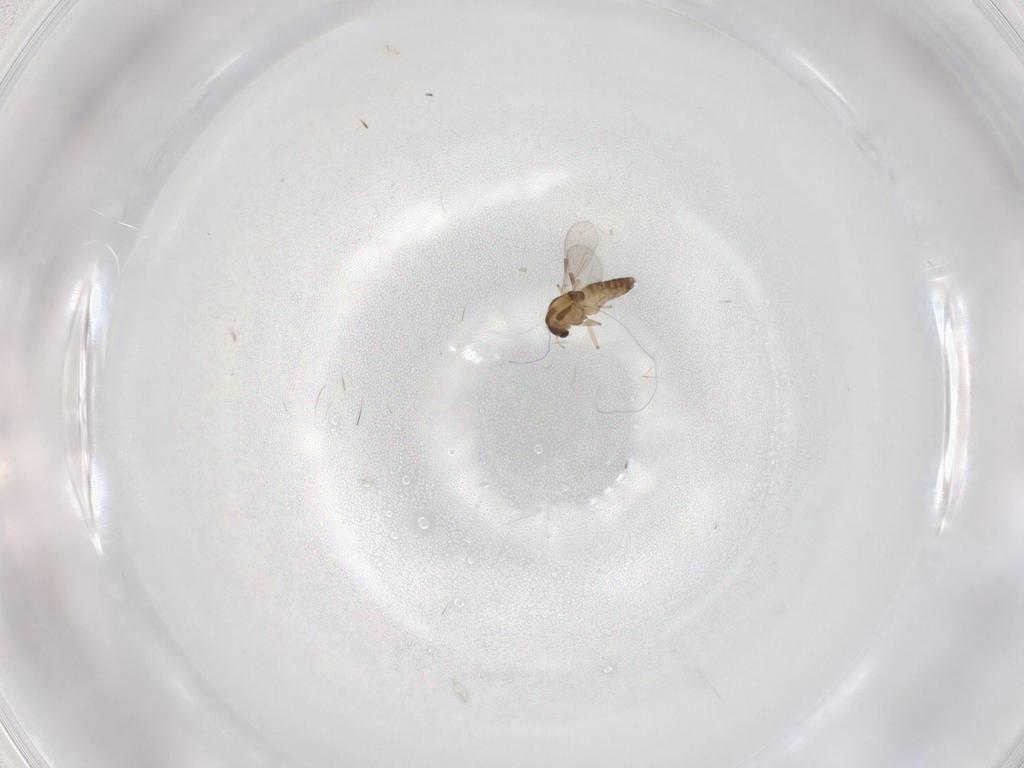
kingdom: Animalia
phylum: Arthropoda
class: Insecta
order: Diptera
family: Chironomidae
